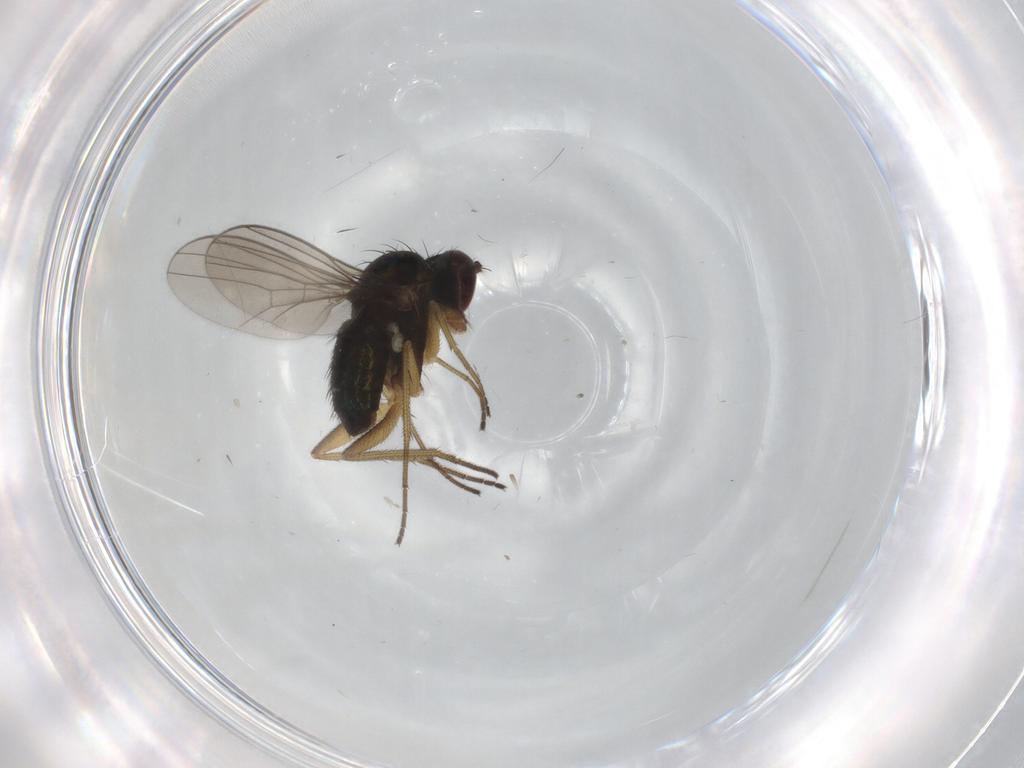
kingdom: Animalia
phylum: Arthropoda
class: Insecta
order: Diptera
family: Dolichopodidae
